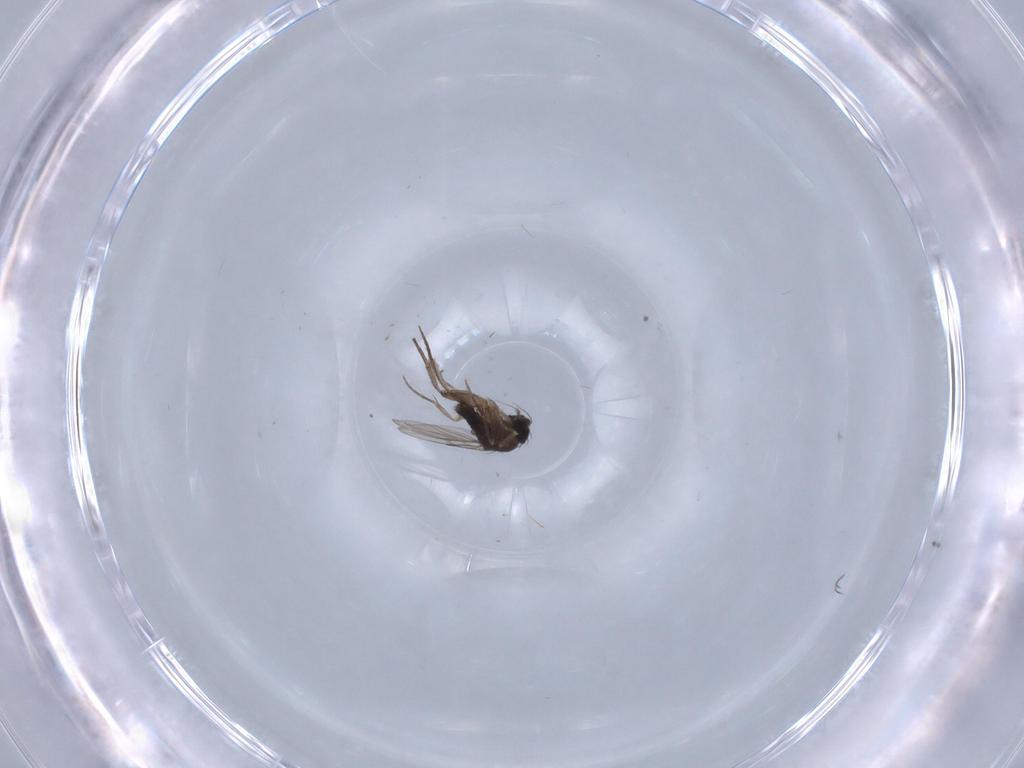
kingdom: Animalia
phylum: Arthropoda
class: Insecta
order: Diptera
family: Phoridae
